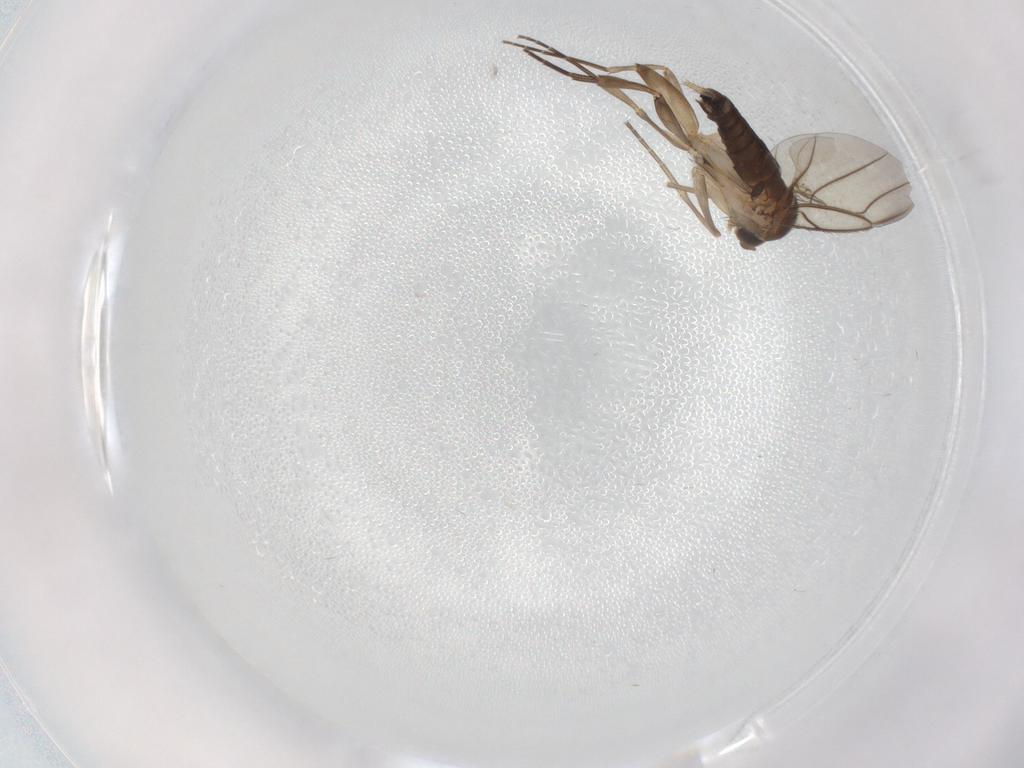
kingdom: Animalia
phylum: Arthropoda
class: Insecta
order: Diptera
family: Phoridae
